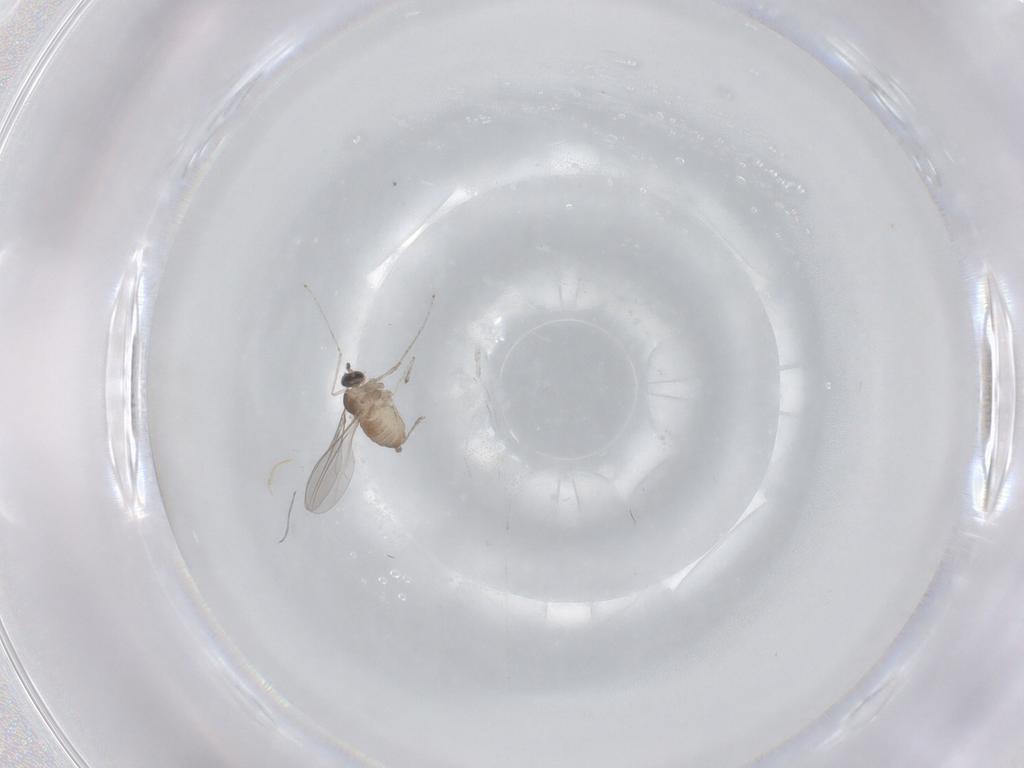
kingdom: Animalia
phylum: Arthropoda
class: Insecta
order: Diptera
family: Cecidomyiidae
